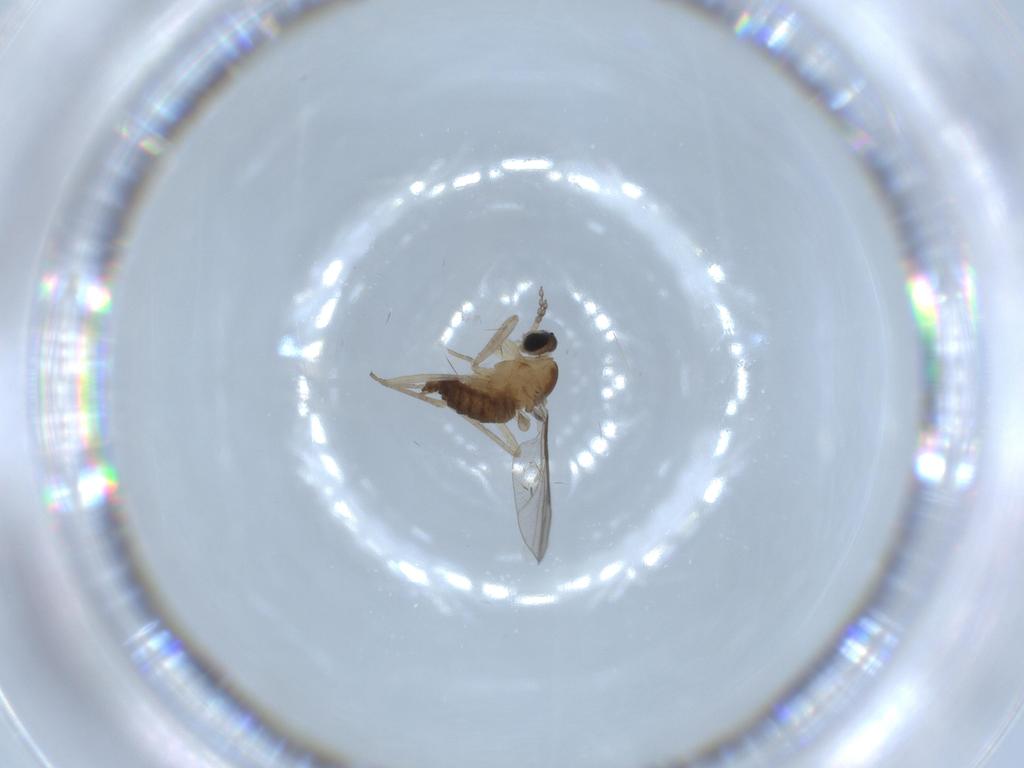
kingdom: Animalia
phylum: Arthropoda
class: Insecta
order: Diptera
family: Cecidomyiidae
